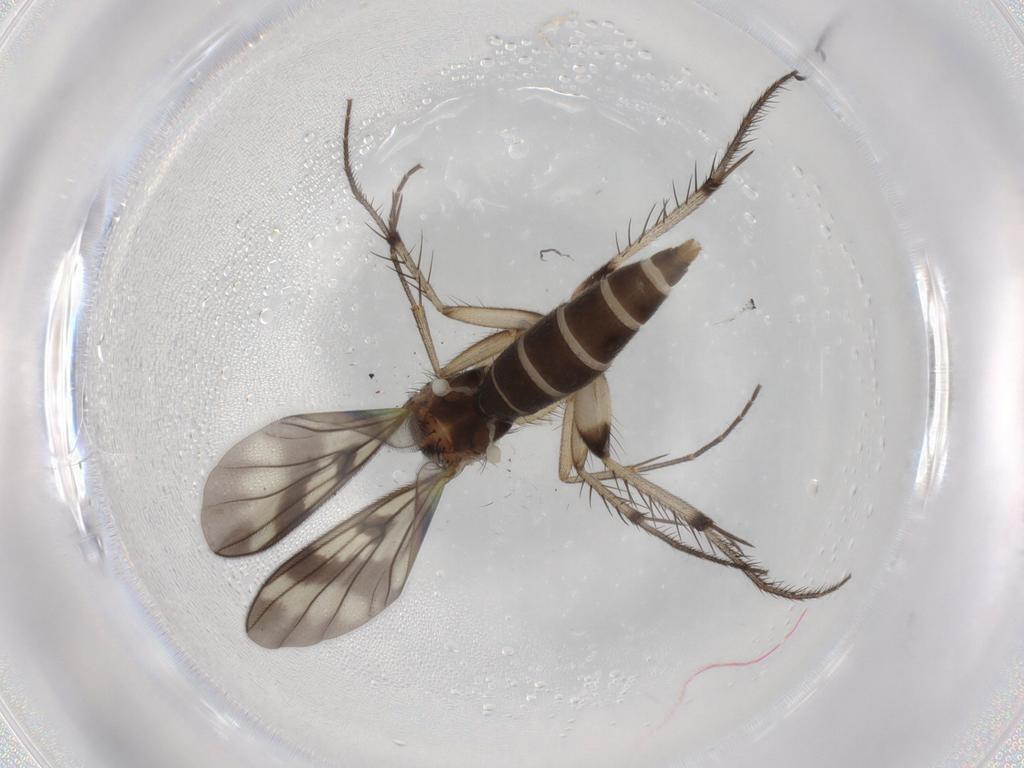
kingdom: Animalia
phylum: Arthropoda
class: Insecta
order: Diptera
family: Mycetophilidae
